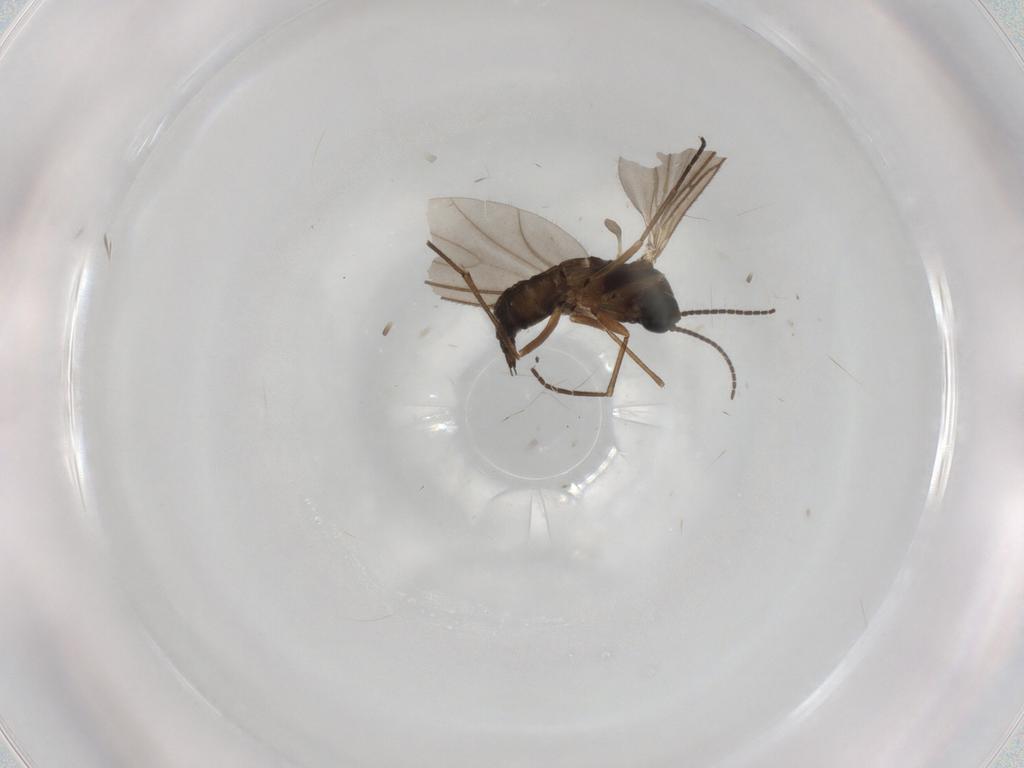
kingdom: Animalia
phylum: Arthropoda
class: Insecta
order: Diptera
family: Sciaridae
